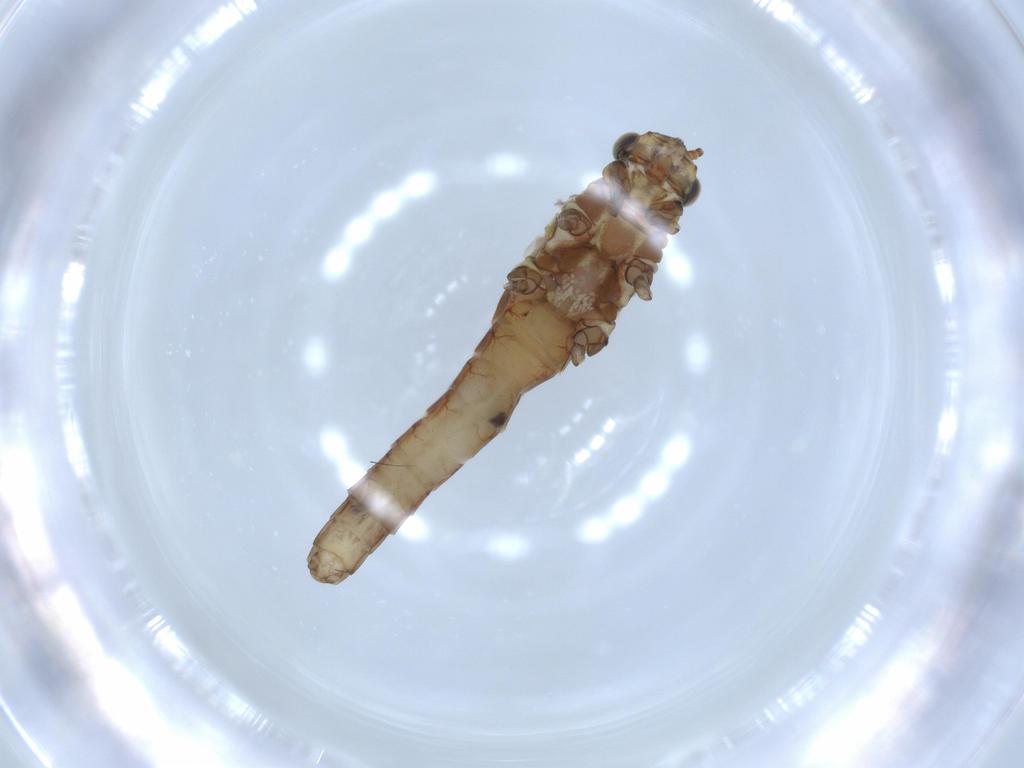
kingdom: Animalia
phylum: Arthropoda
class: Insecta
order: Ephemeroptera
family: Baetidae
